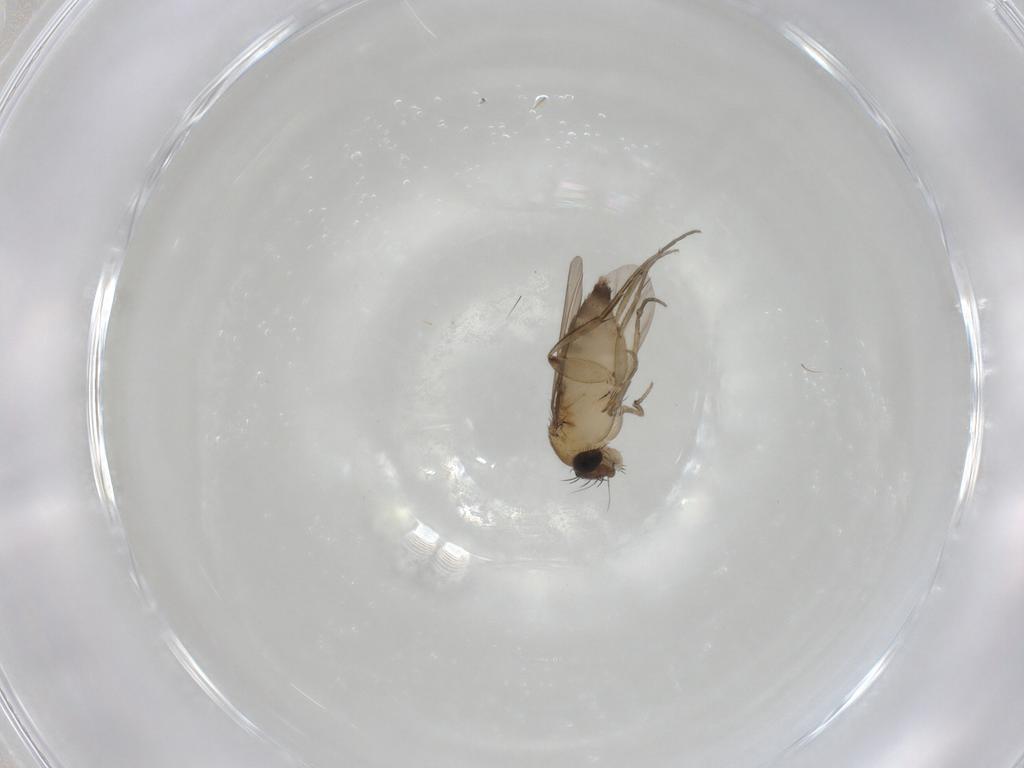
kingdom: Animalia
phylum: Arthropoda
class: Insecta
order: Diptera
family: Phoridae
